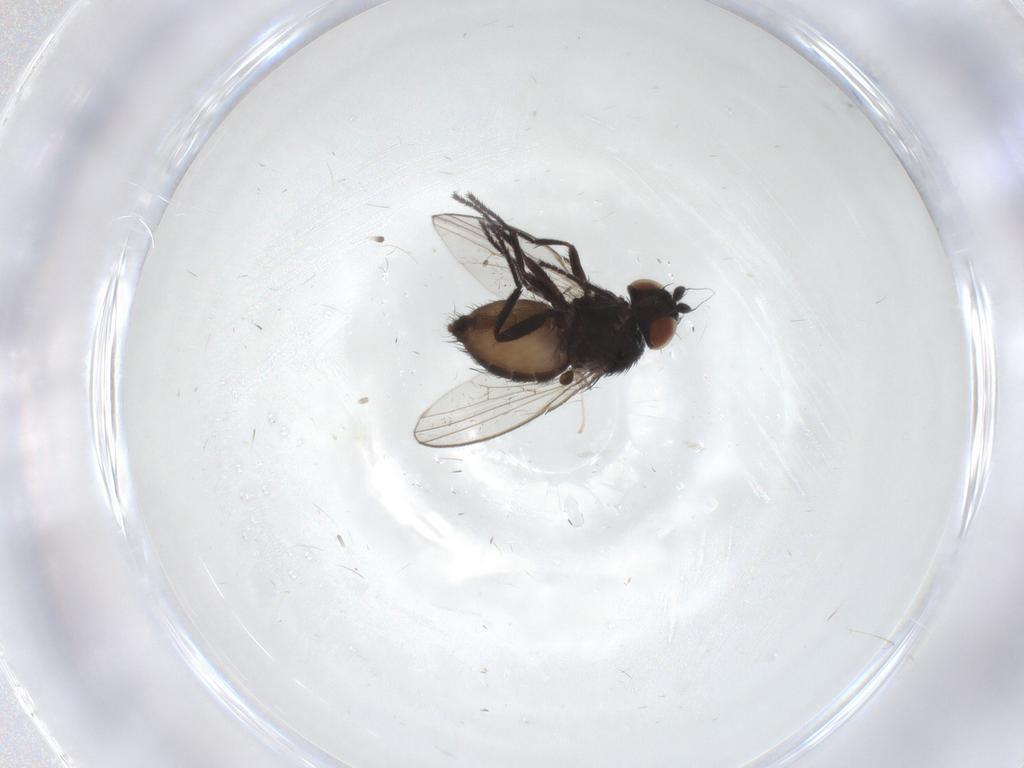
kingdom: Animalia
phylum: Arthropoda
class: Insecta
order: Diptera
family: Milichiidae
